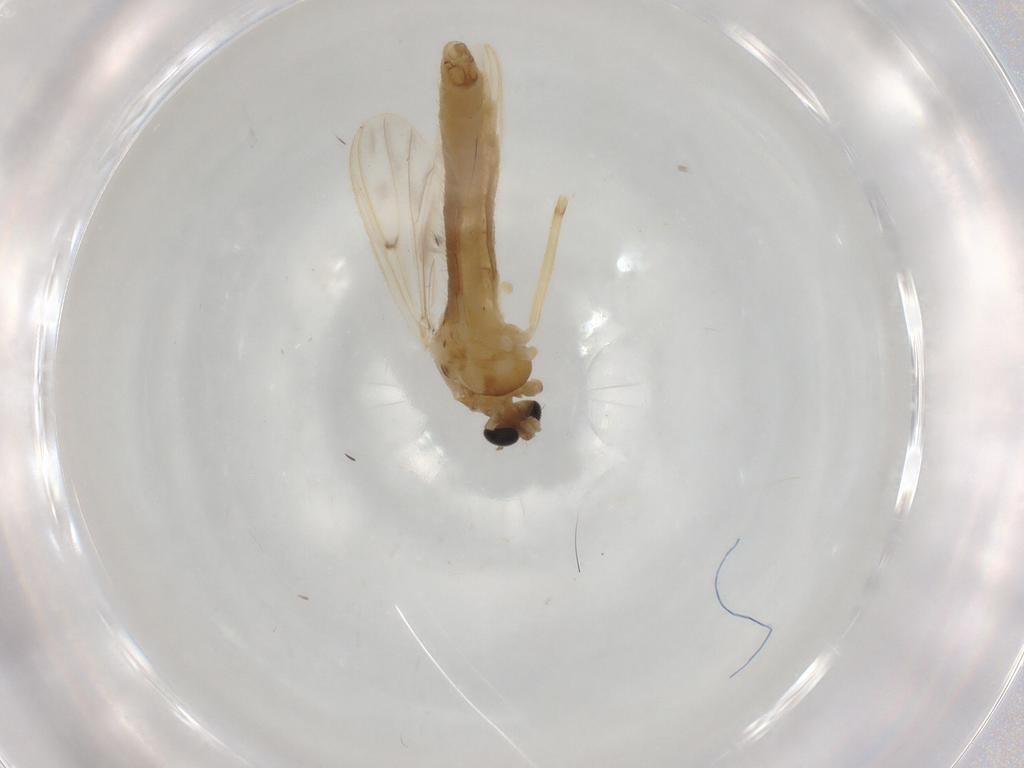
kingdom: Animalia
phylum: Arthropoda
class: Insecta
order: Diptera
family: Chironomidae
